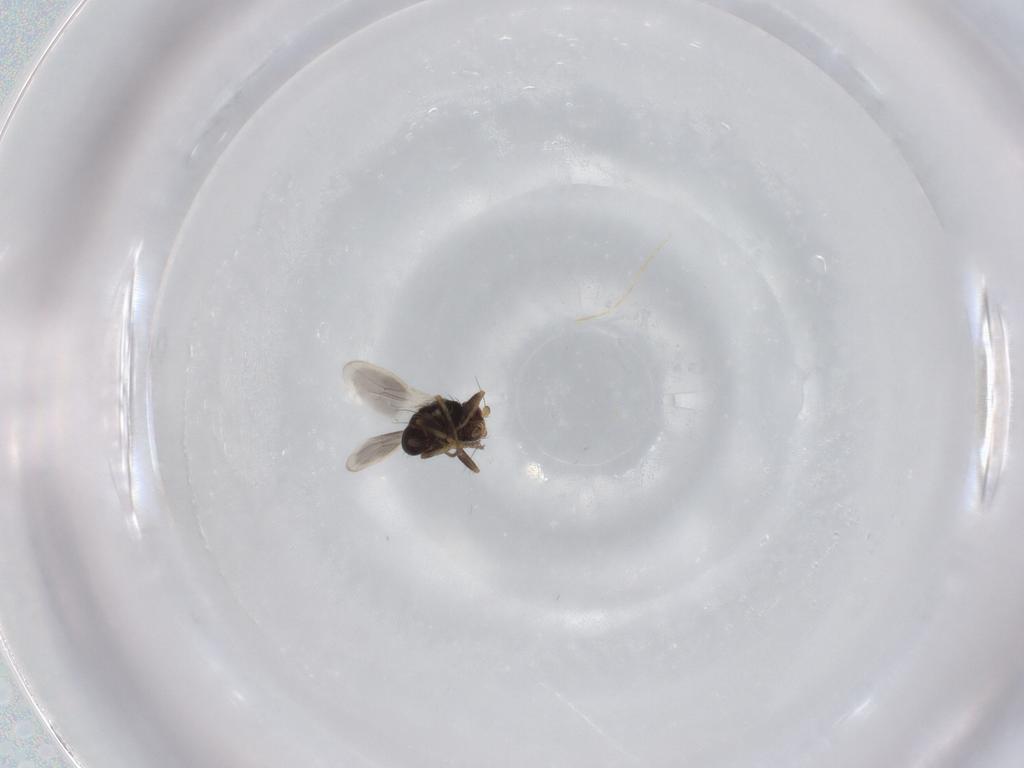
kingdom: Animalia
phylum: Arthropoda
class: Insecta
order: Diptera
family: Sphaeroceridae
